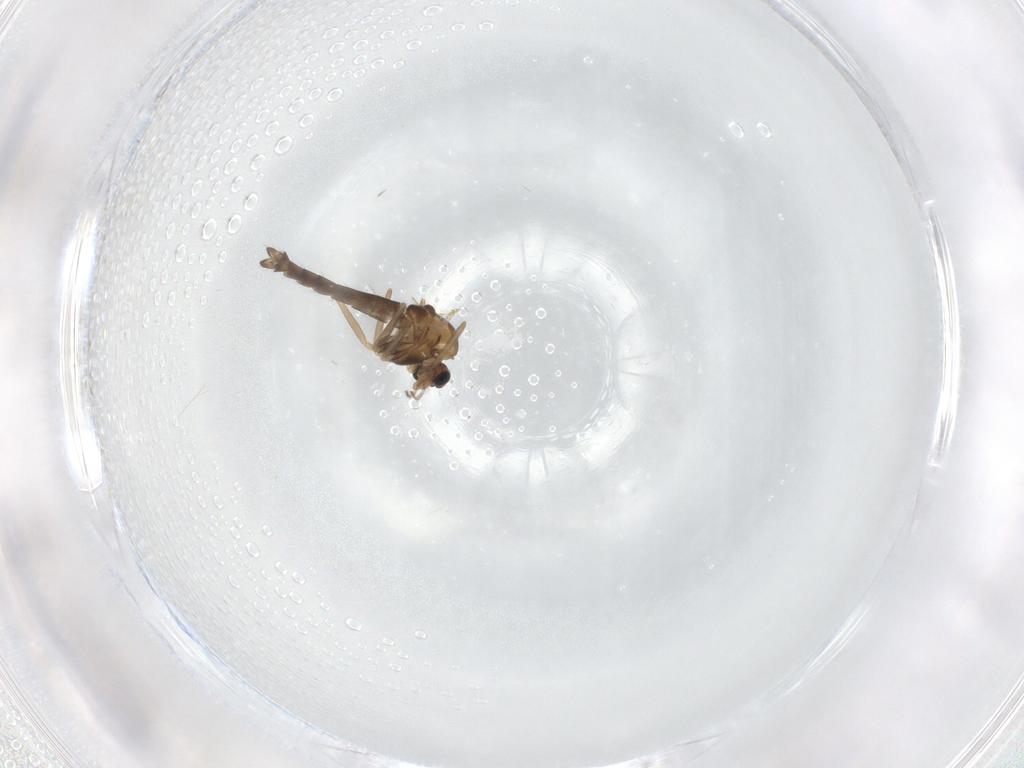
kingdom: Animalia
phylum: Arthropoda
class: Insecta
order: Diptera
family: Chironomidae
